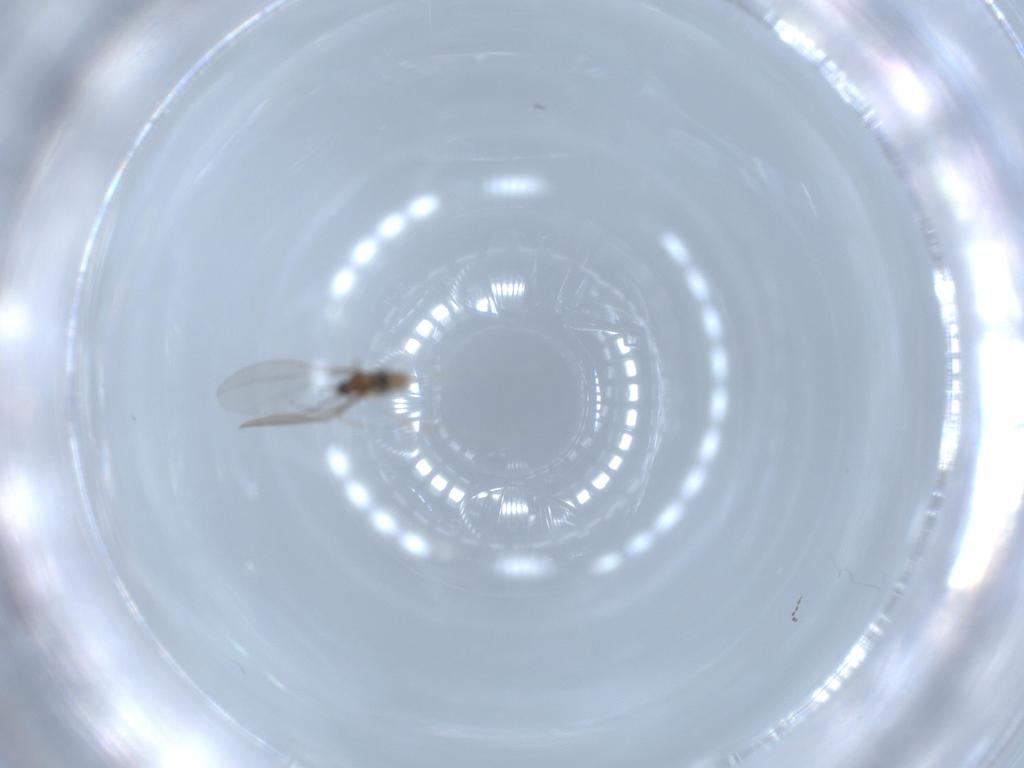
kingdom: Animalia
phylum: Arthropoda
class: Insecta
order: Diptera
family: Cecidomyiidae
